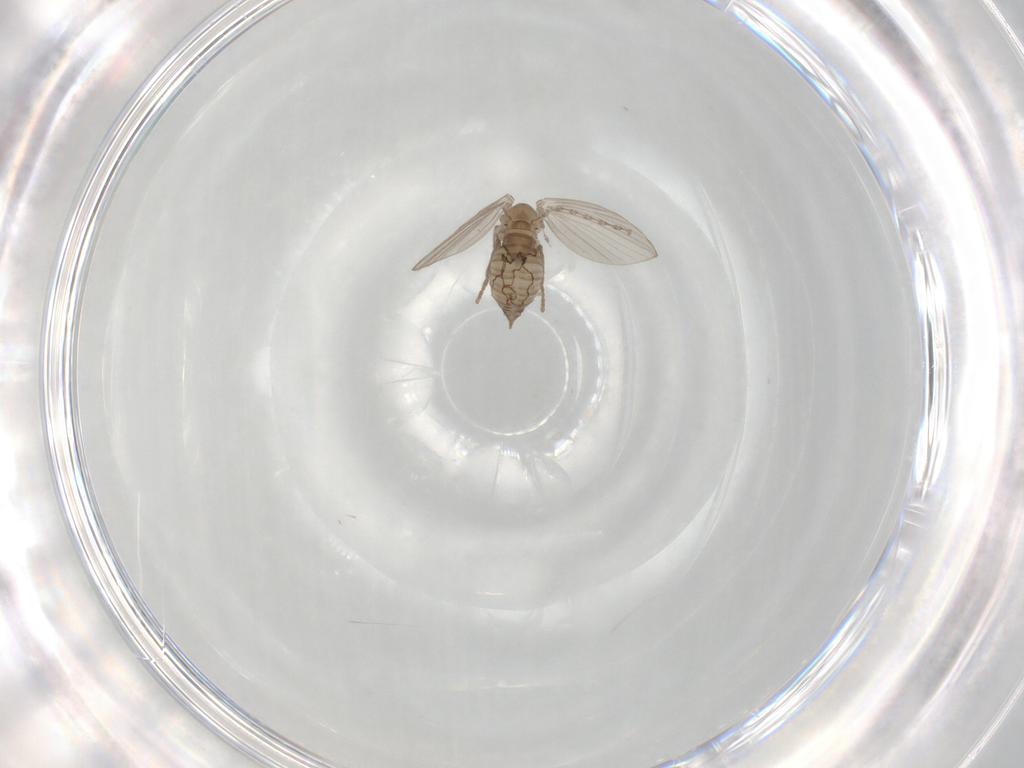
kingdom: Animalia
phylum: Arthropoda
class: Insecta
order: Diptera
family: Psychodidae
